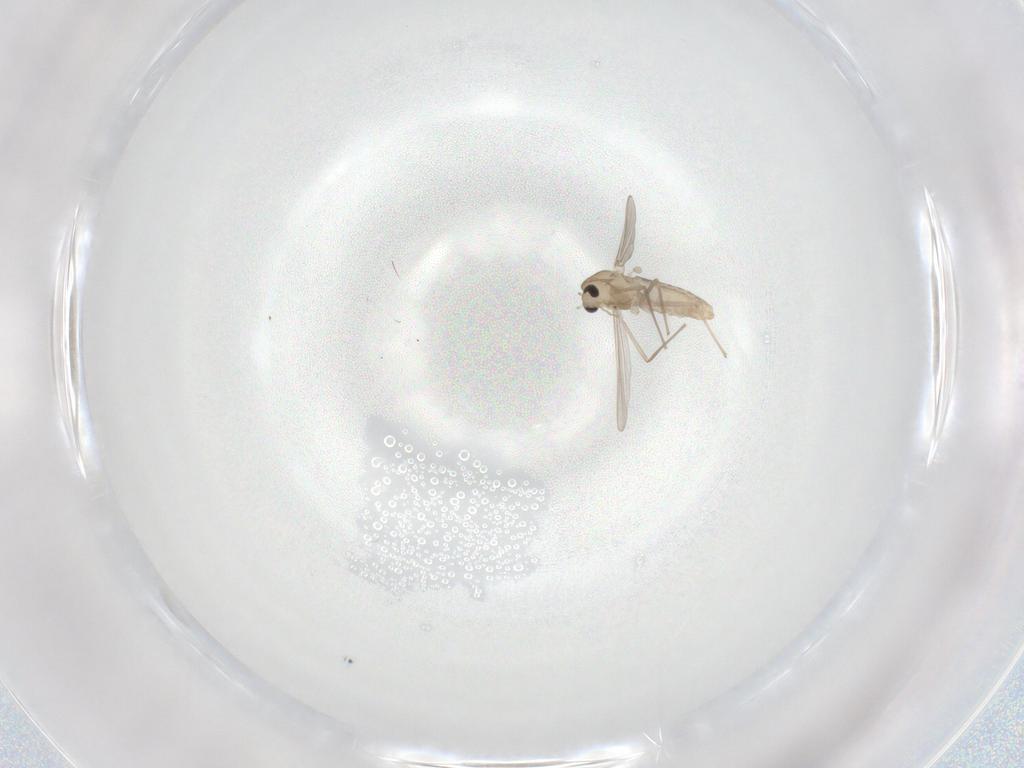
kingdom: Animalia
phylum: Arthropoda
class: Insecta
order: Diptera
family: Chironomidae
